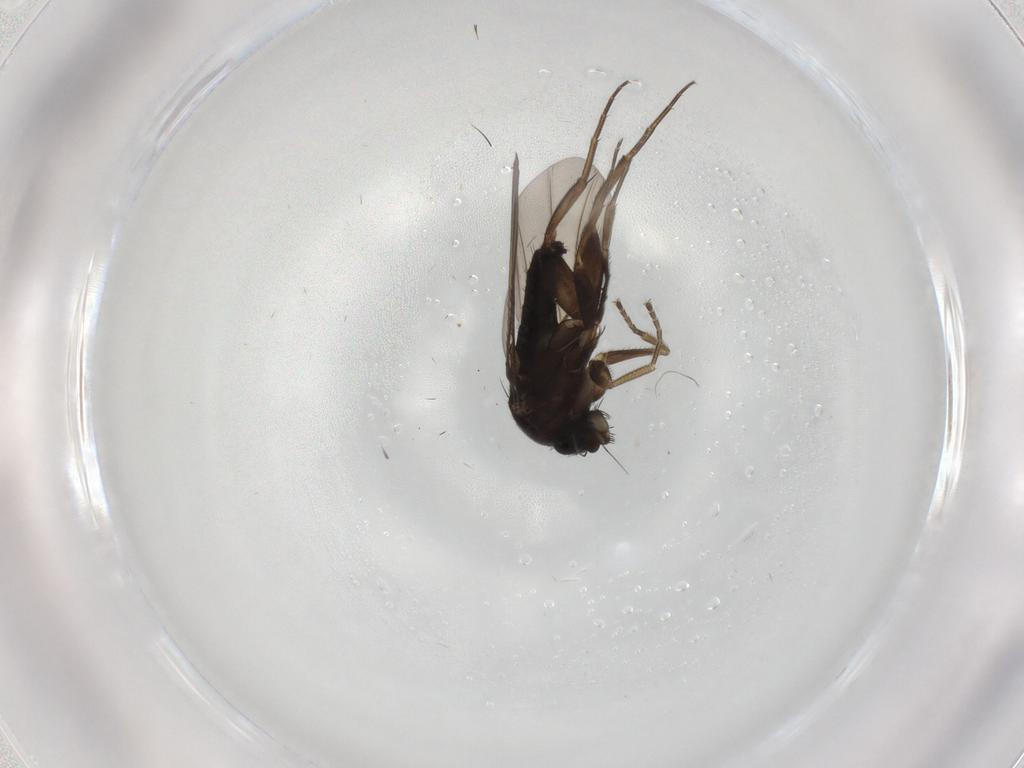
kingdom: Animalia
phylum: Arthropoda
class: Insecta
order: Diptera
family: Phoridae
